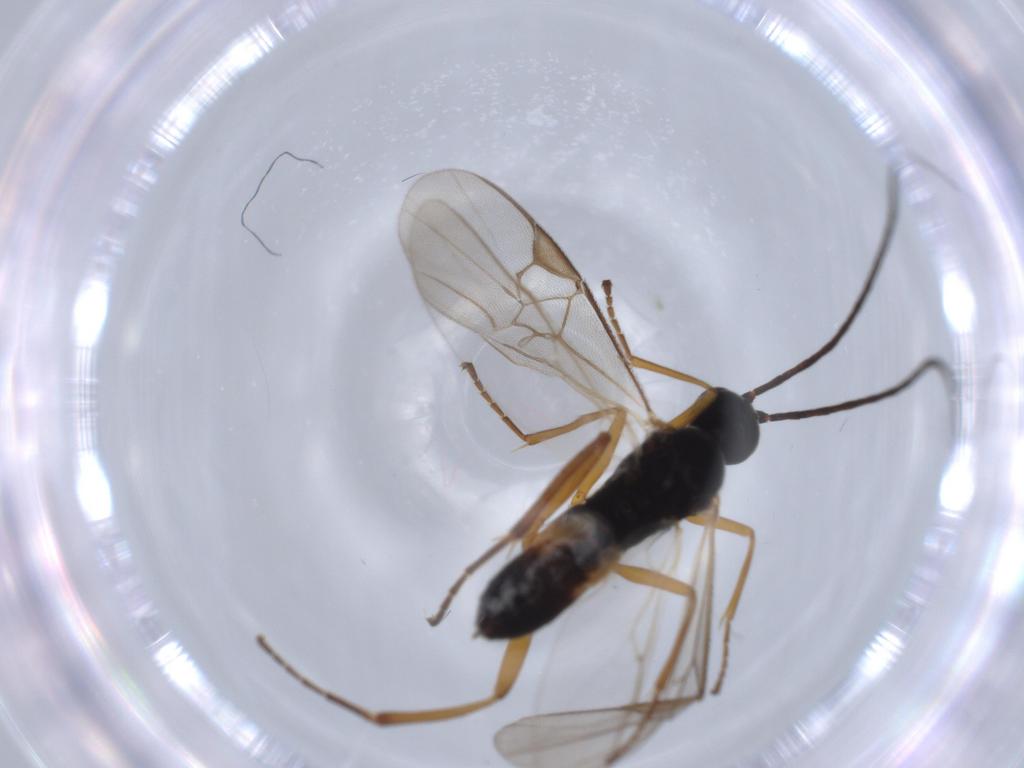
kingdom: Animalia
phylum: Arthropoda
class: Insecta
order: Hymenoptera
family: Braconidae
